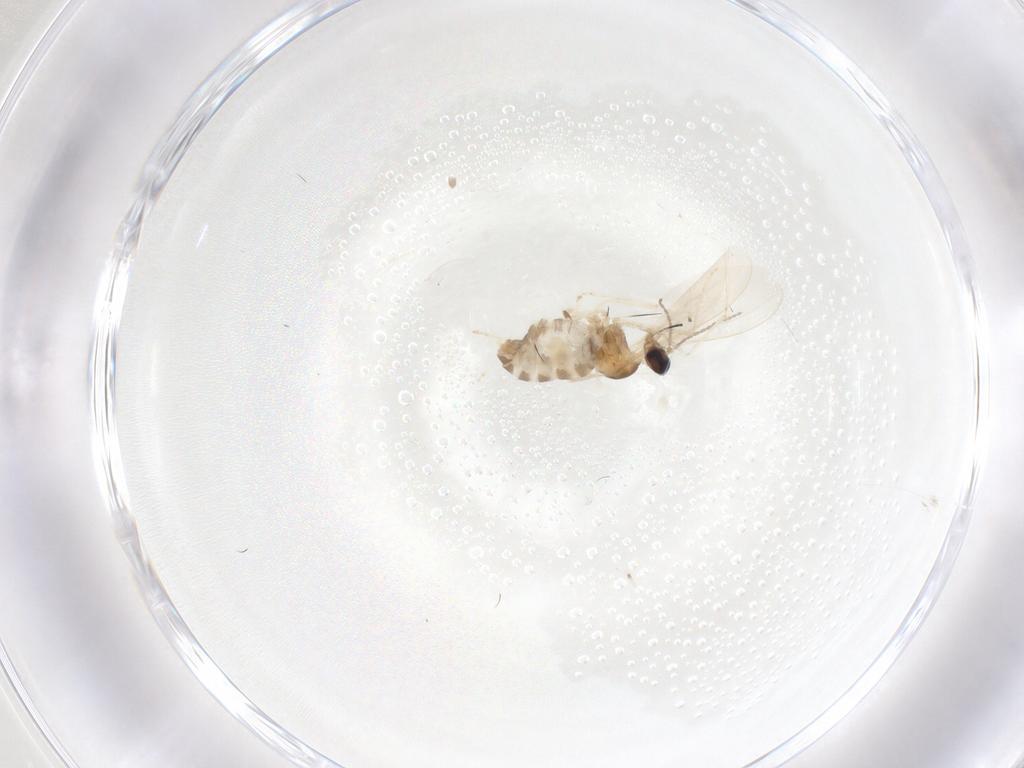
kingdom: Animalia
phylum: Arthropoda
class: Insecta
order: Diptera
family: Cecidomyiidae
